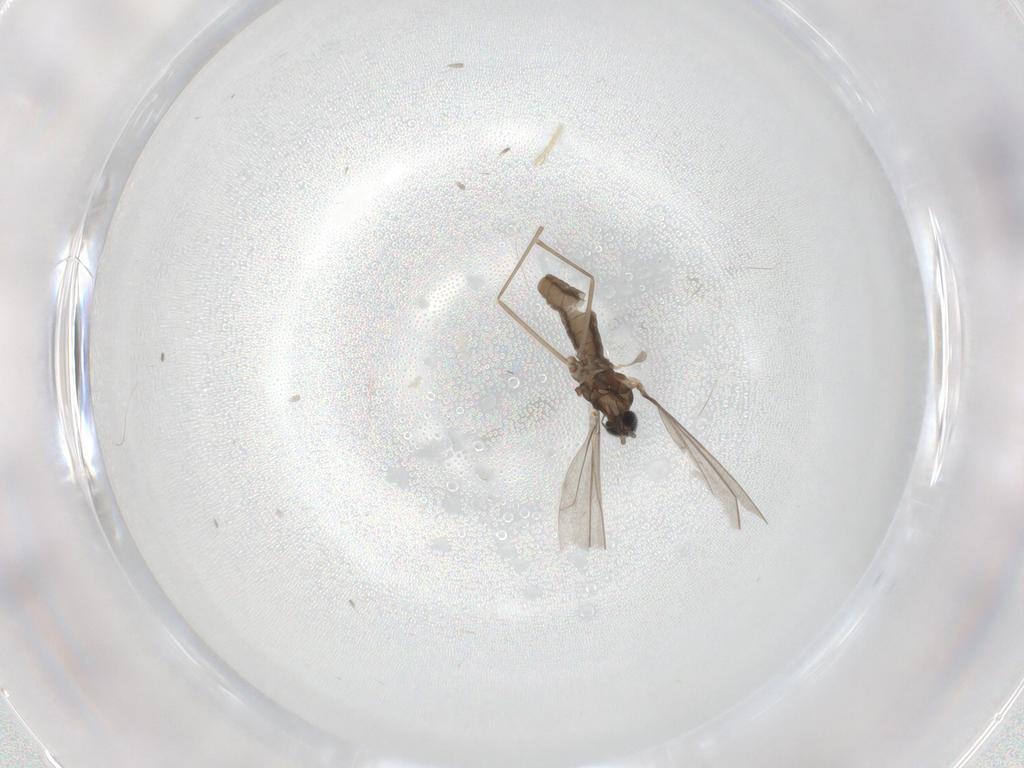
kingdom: Animalia
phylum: Arthropoda
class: Insecta
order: Diptera
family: Cecidomyiidae
